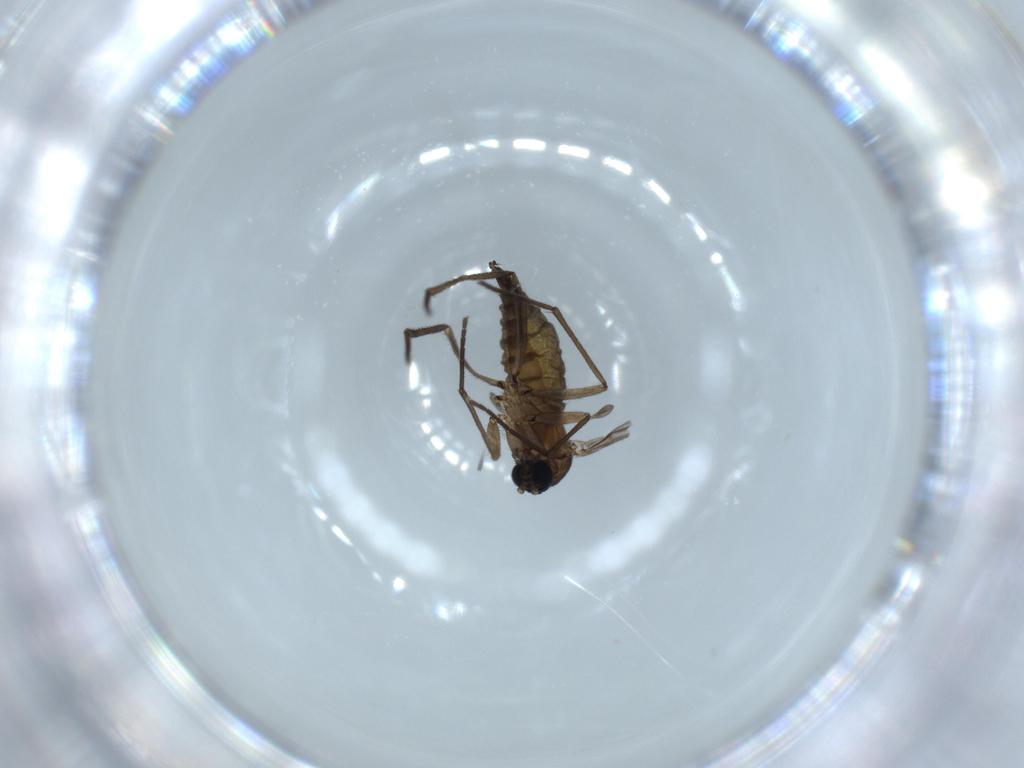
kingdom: Animalia
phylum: Arthropoda
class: Insecta
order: Diptera
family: Sciaridae
